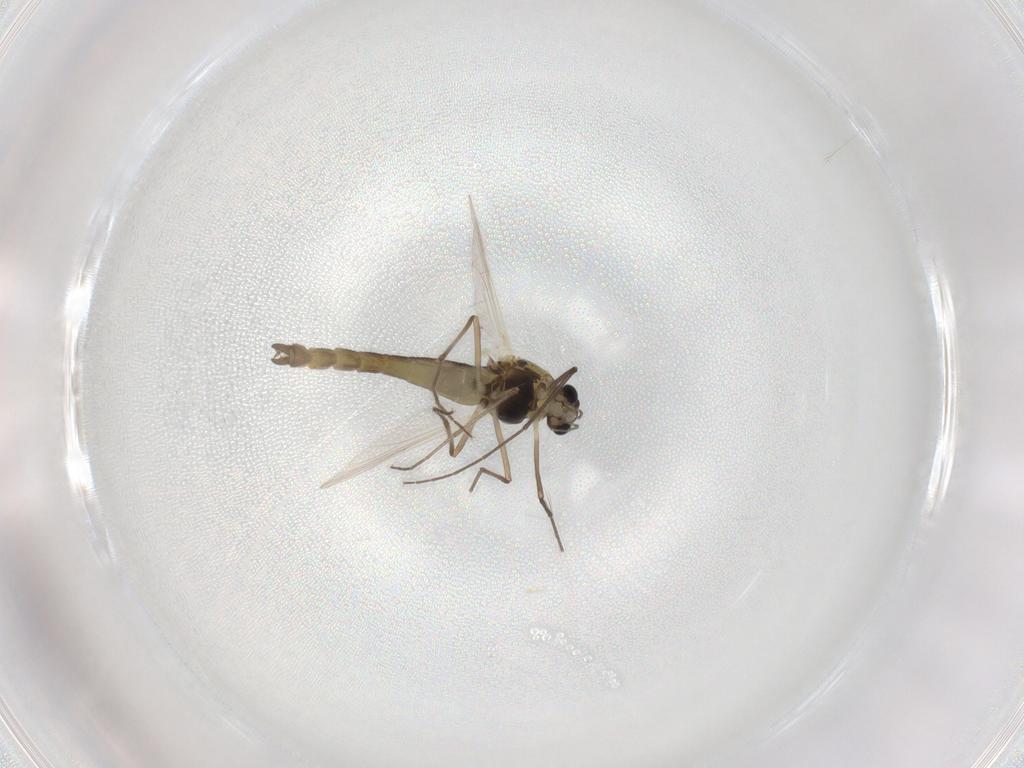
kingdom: Animalia
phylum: Arthropoda
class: Insecta
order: Diptera
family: Chironomidae
